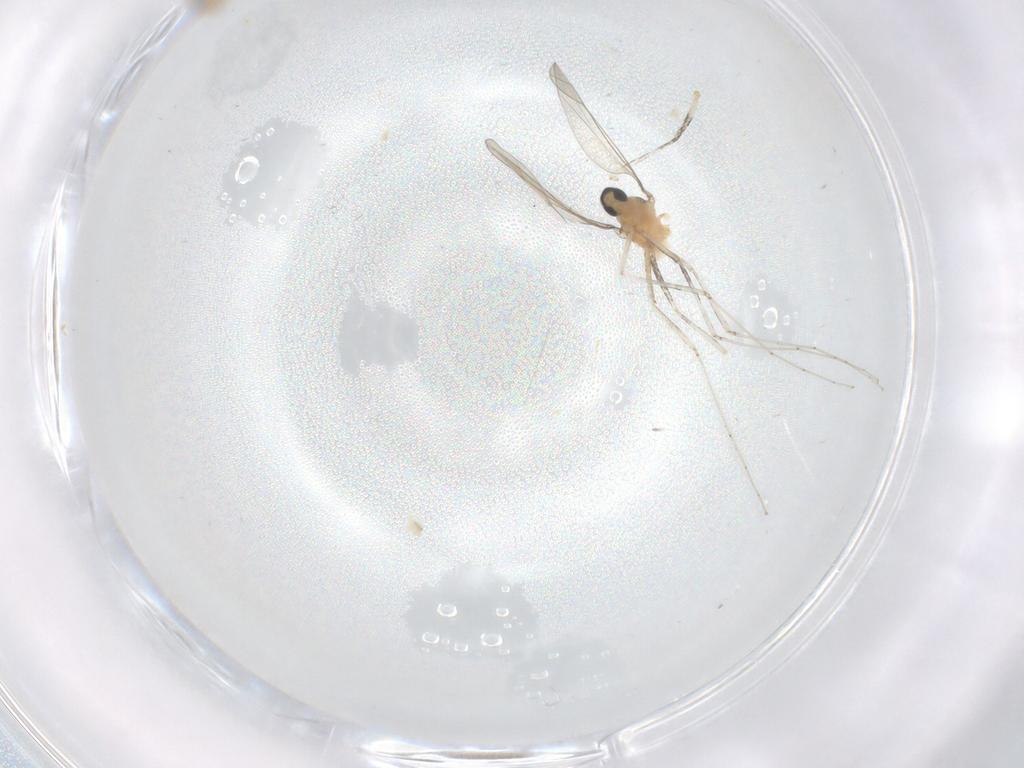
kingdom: Animalia
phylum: Arthropoda
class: Insecta
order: Diptera
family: Cecidomyiidae
